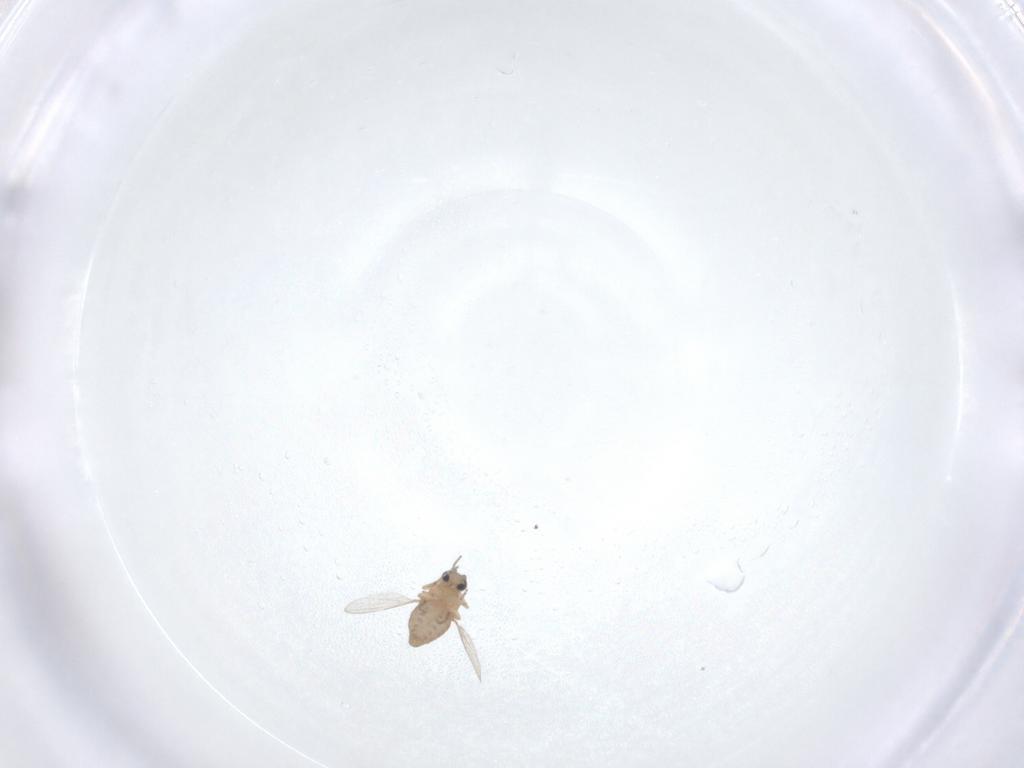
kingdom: Animalia
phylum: Arthropoda
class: Insecta
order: Diptera
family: Ceratopogonidae
